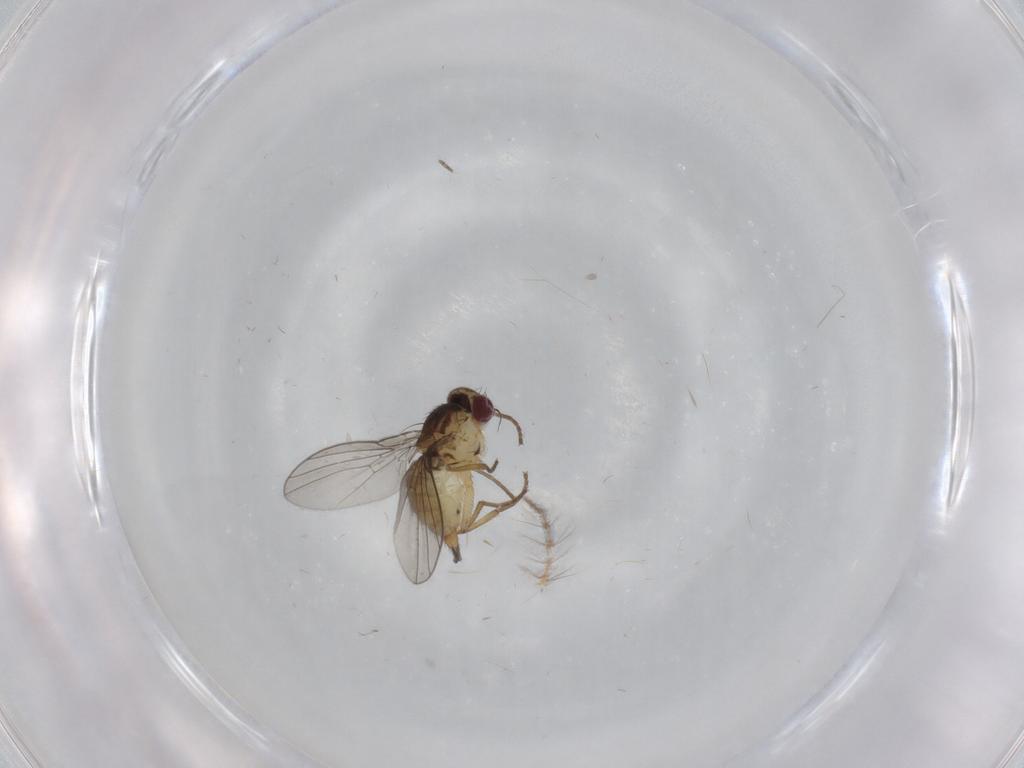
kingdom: Animalia
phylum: Arthropoda
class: Insecta
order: Diptera
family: Agromyzidae
